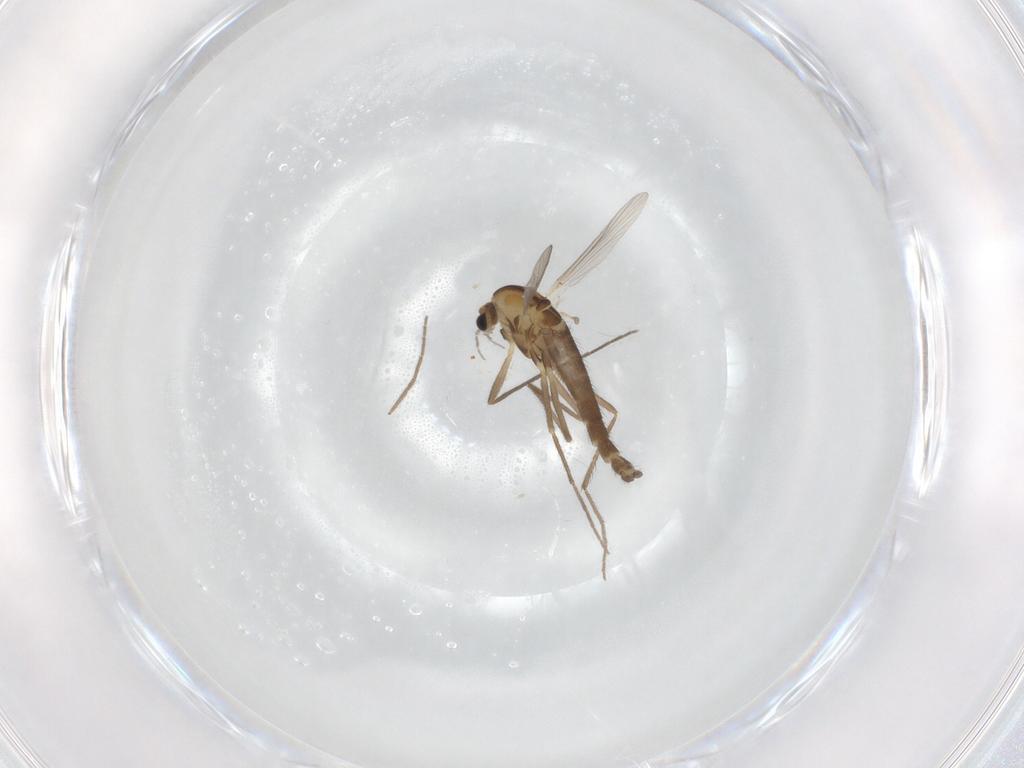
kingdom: Animalia
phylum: Arthropoda
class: Insecta
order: Diptera
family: Chironomidae
